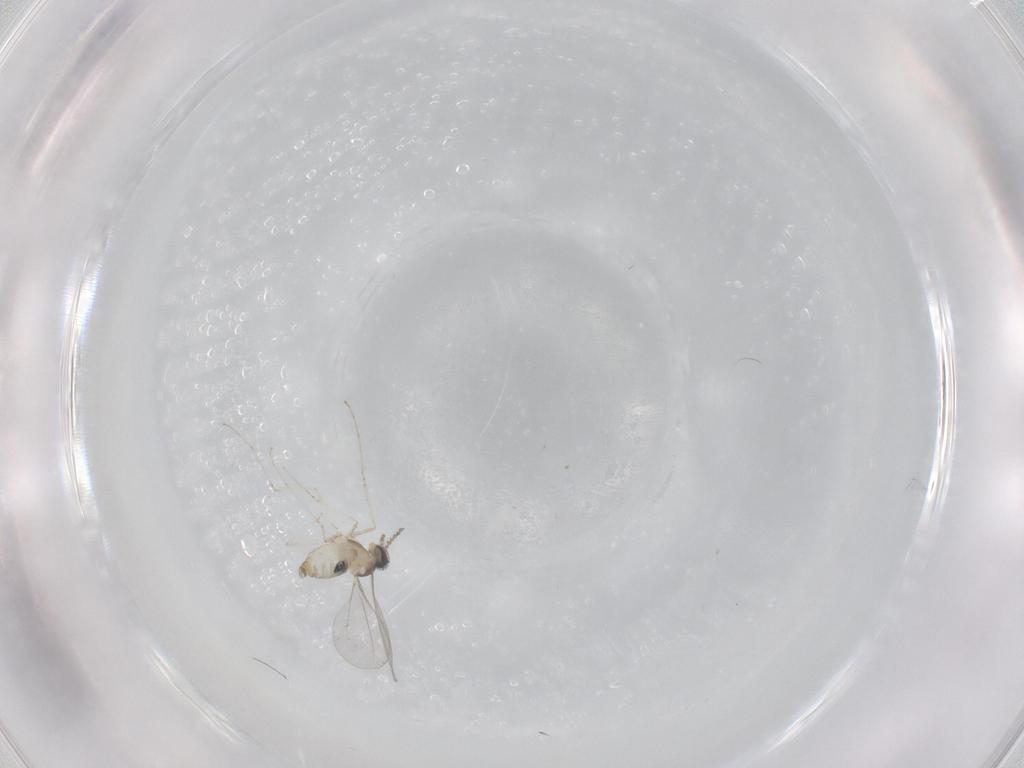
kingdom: Animalia
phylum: Arthropoda
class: Insecta
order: Diptera
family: Cecidomyiidae
